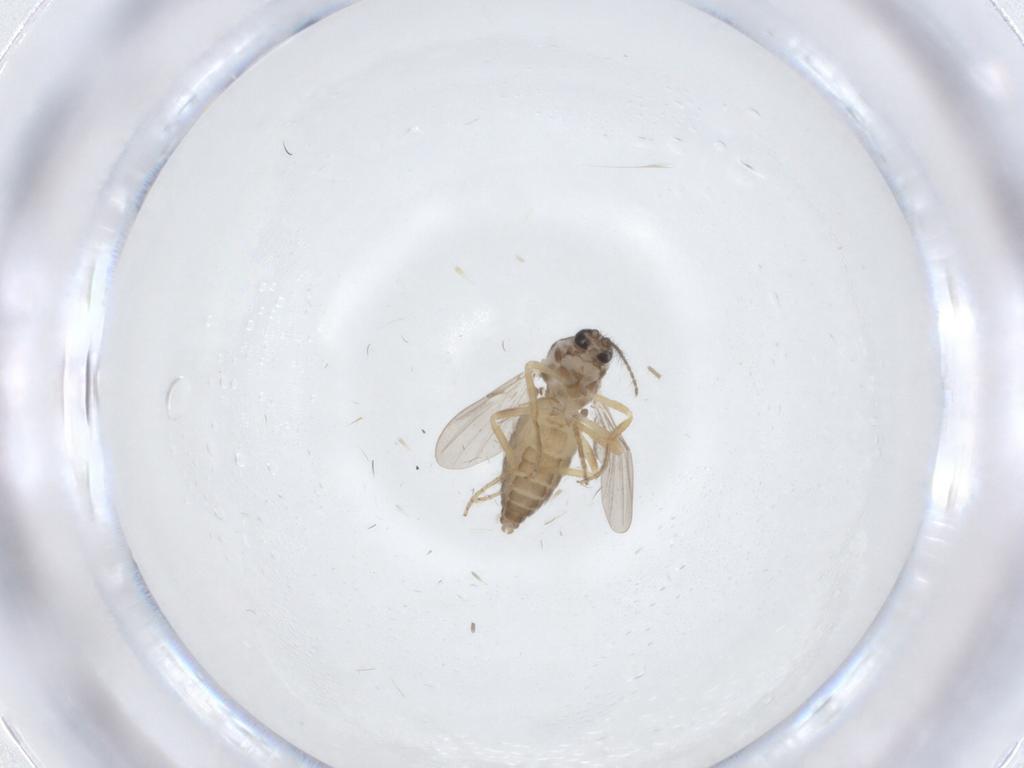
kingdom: Animalia
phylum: Arthropoda
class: Insecta
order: Diptera
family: Ceratopogonidae
